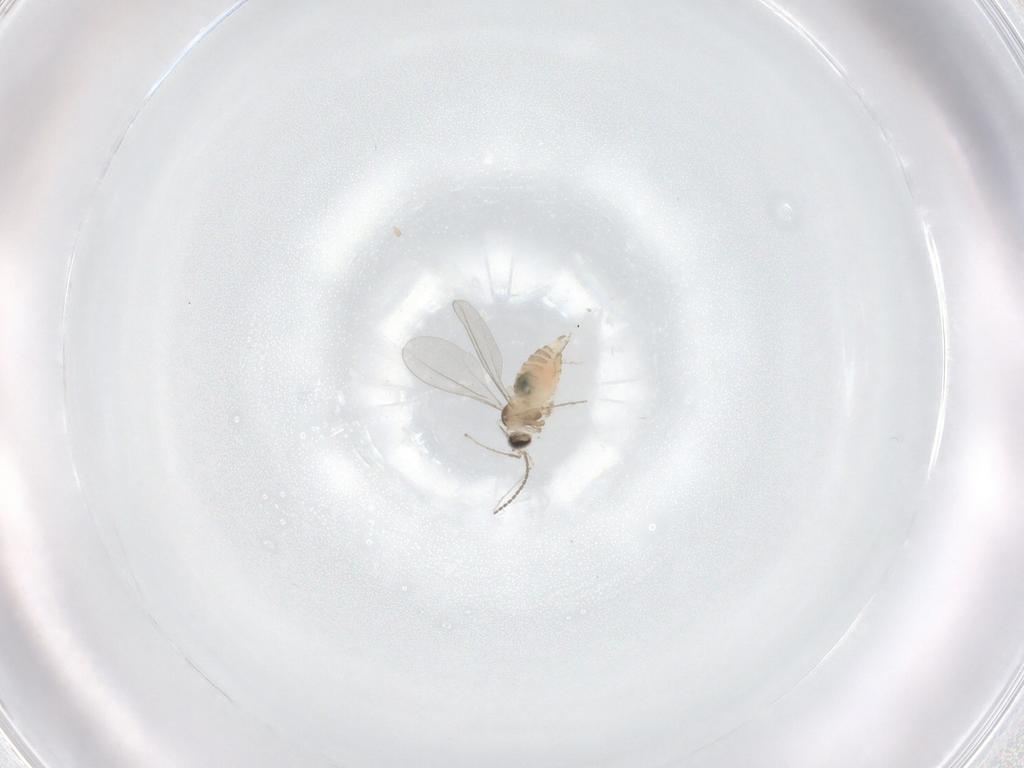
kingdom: Animalia
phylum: Arthropoda
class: Insecta
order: Diptera
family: Cecidomyiidae
